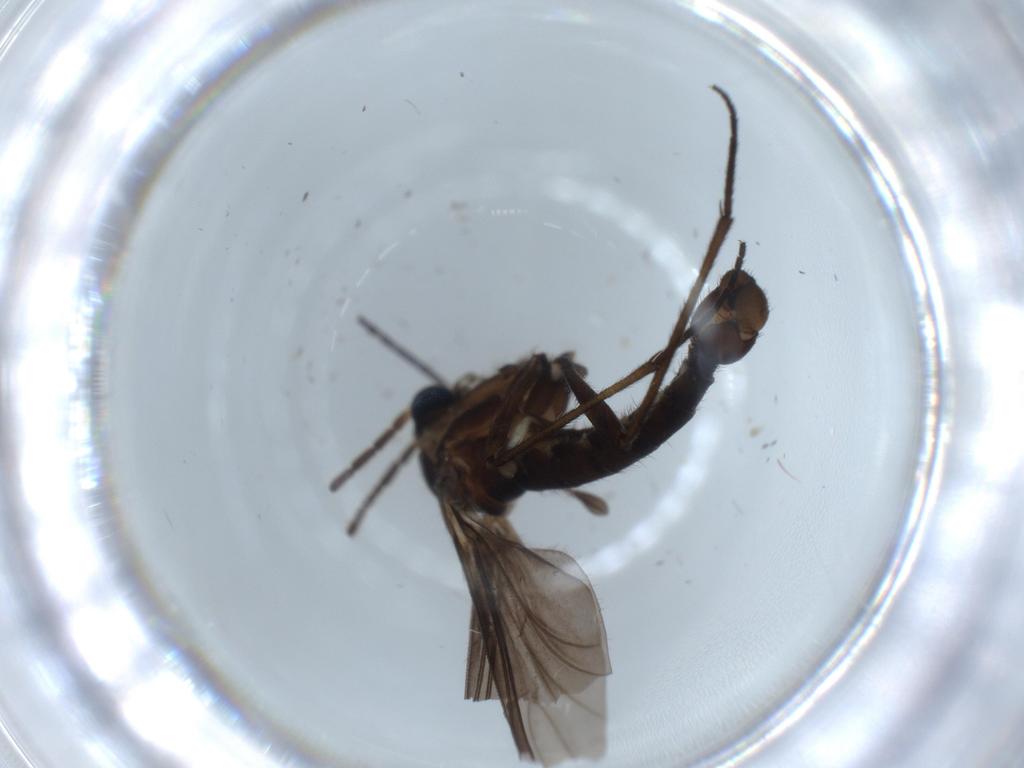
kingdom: Animalia
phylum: Arthropoda
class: Insecta
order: Diptera
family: Sciaridae
